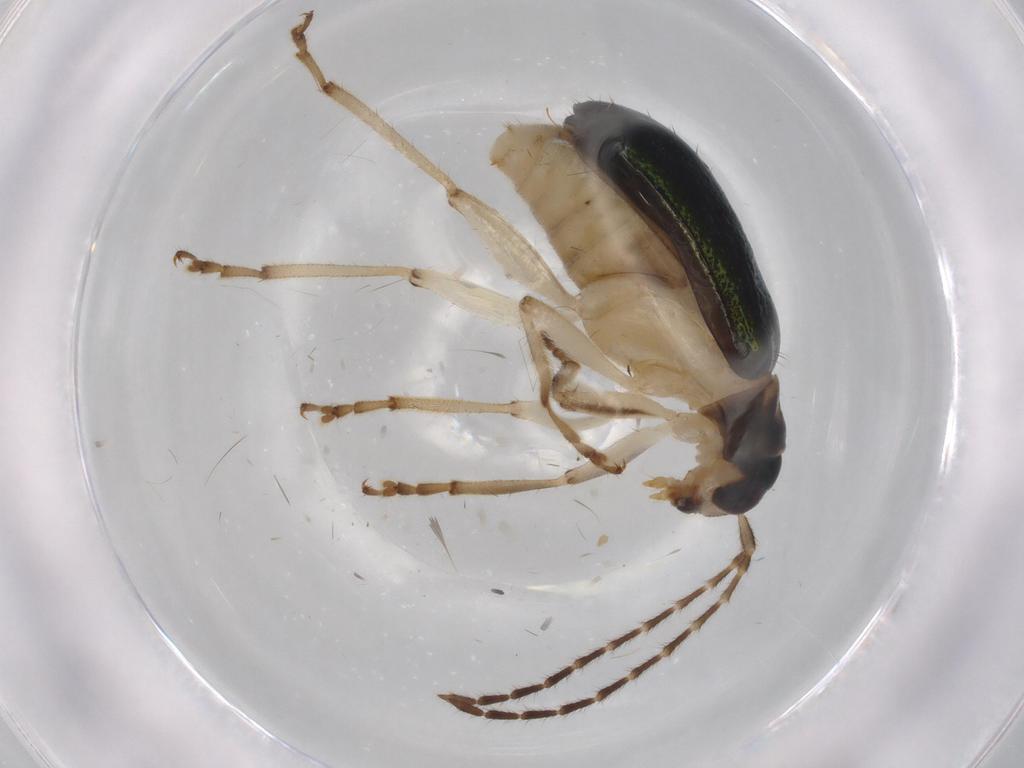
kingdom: Animalia
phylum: Arthropoda
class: Insecta
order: Coleoptera
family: Chrysomelidae
